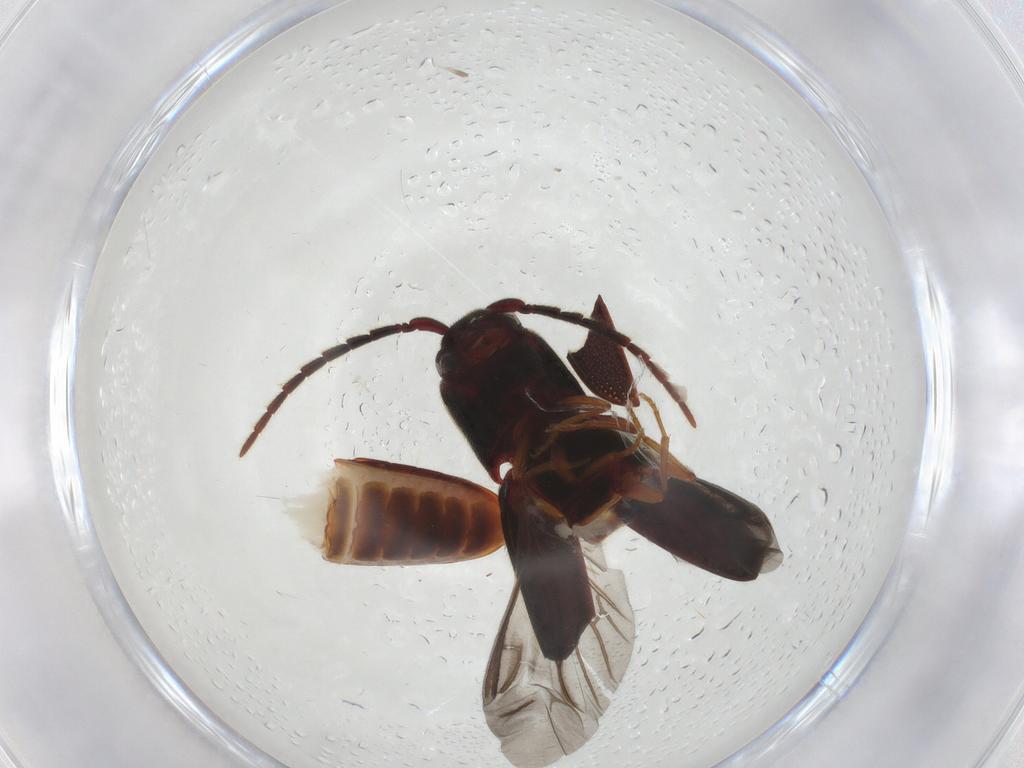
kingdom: Animalia
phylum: Arthropoda
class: Insecta
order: Coleoptera
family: Eucnemidae
